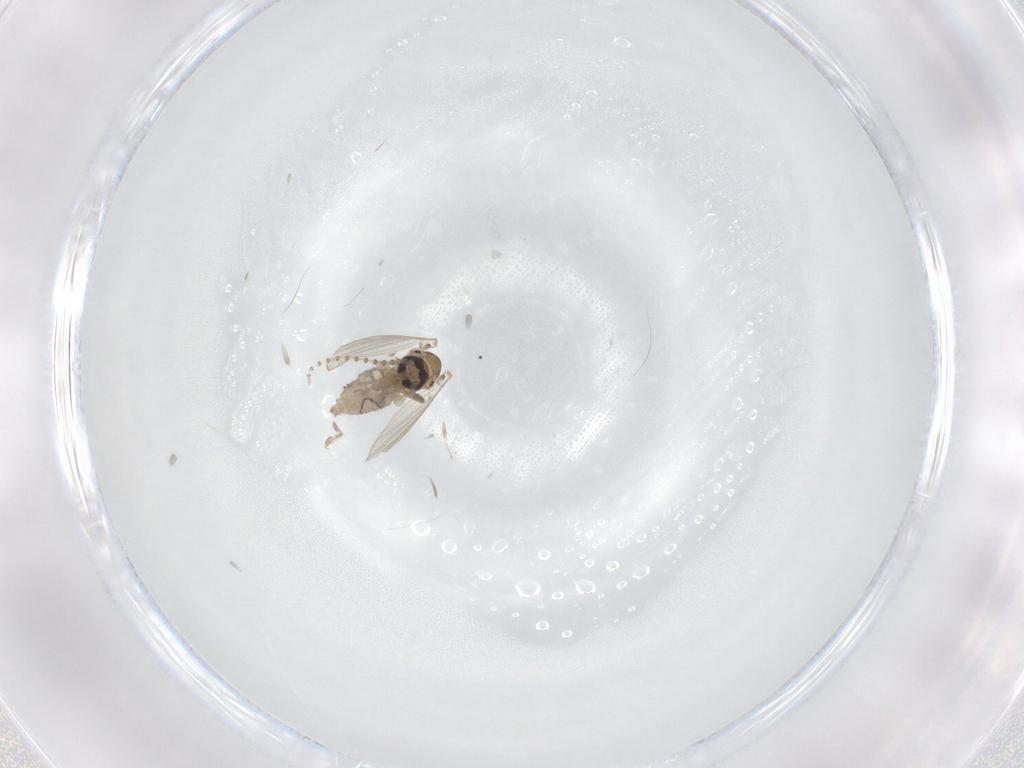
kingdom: Animalia
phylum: Arthropoda
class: Insecta
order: Diptera
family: Psychodidae
